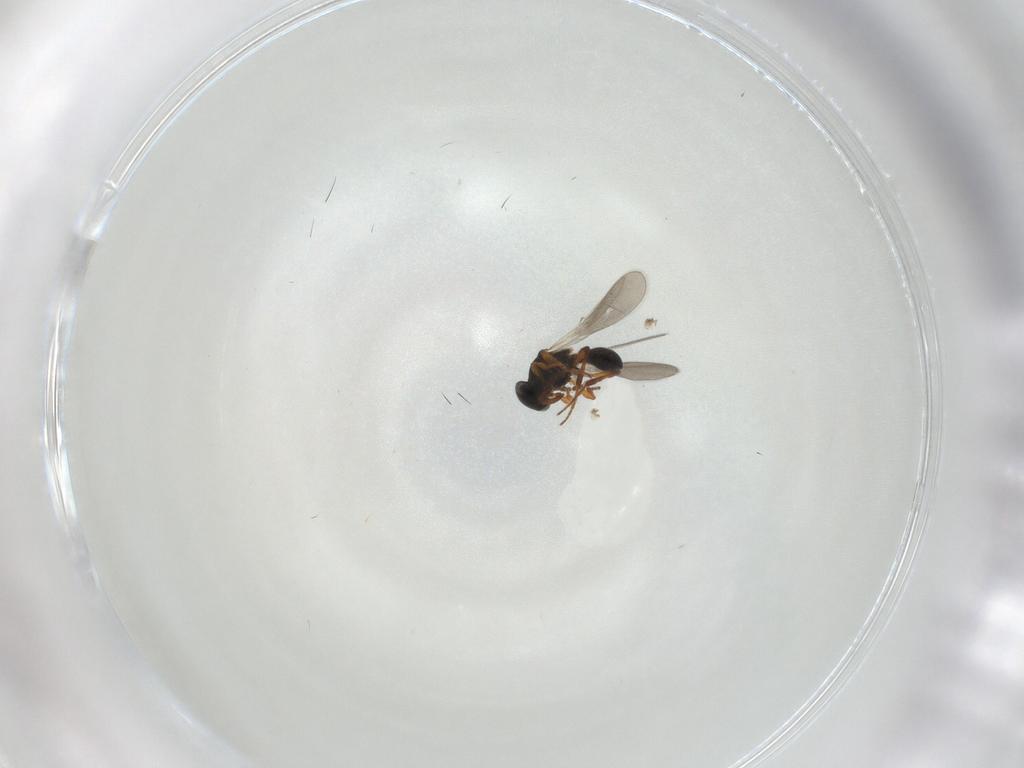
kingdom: Animalia
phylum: Arthropoda
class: Insecta
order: Hymenoptera
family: Platygastridae
